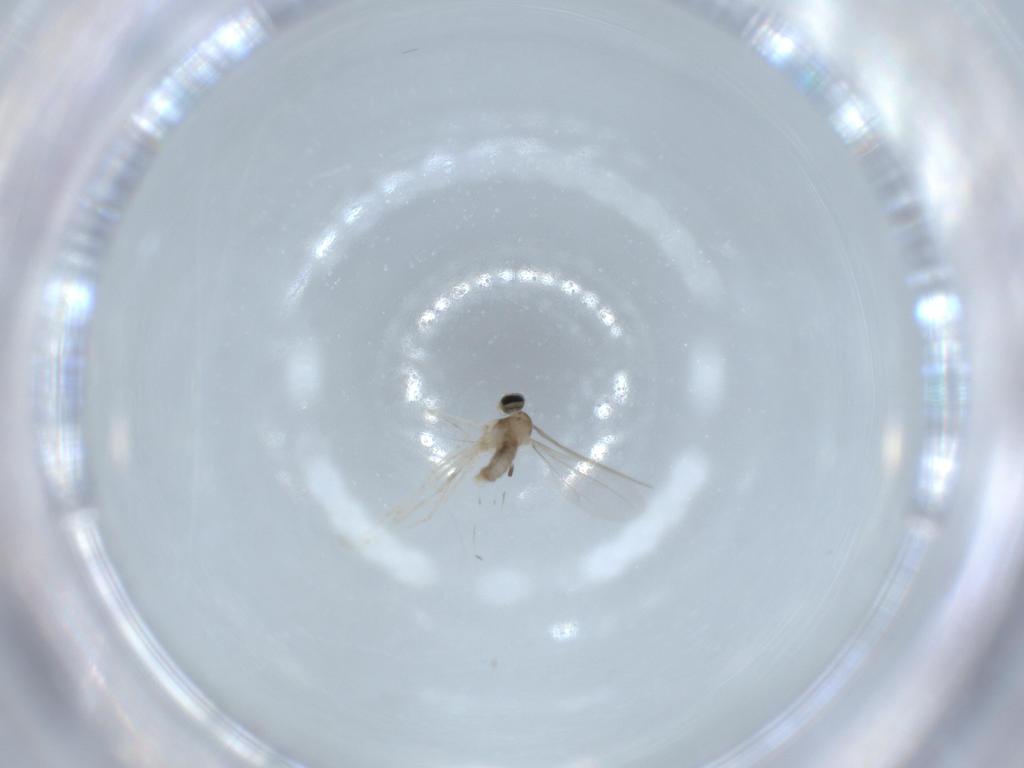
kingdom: Animalia
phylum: Arthropoda
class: Insecta
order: Diptera
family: Cecidomyiidae
